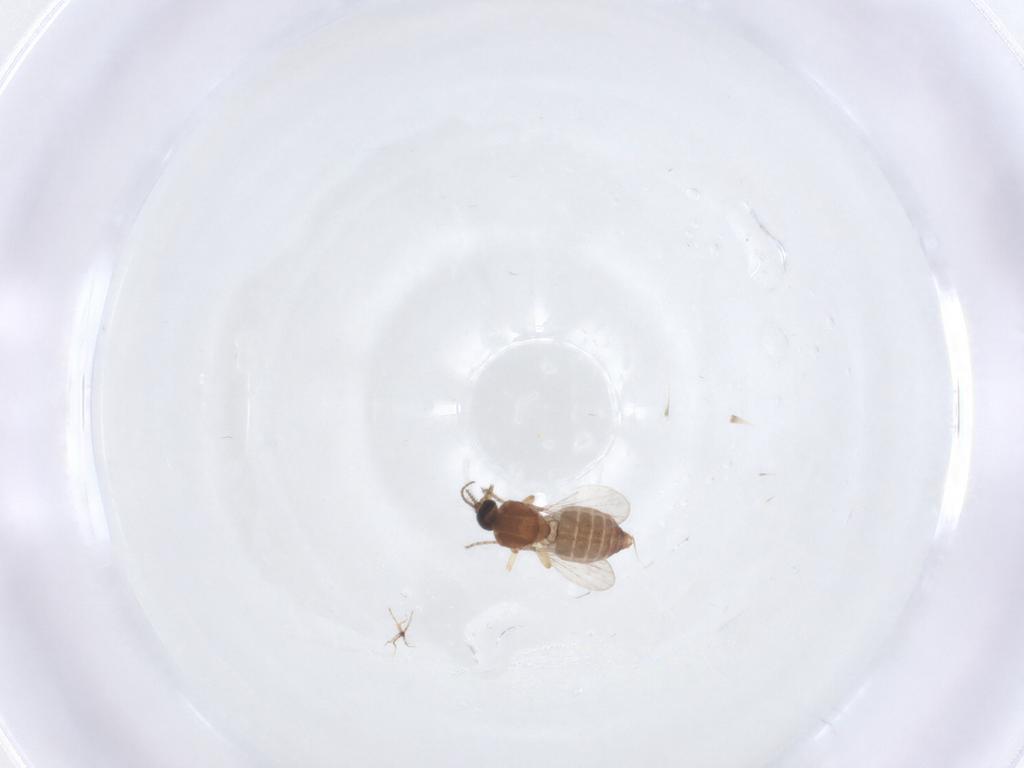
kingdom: Animalia
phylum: Arthropoda
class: Insecta
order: Diptera
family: Ceratopogonidae
